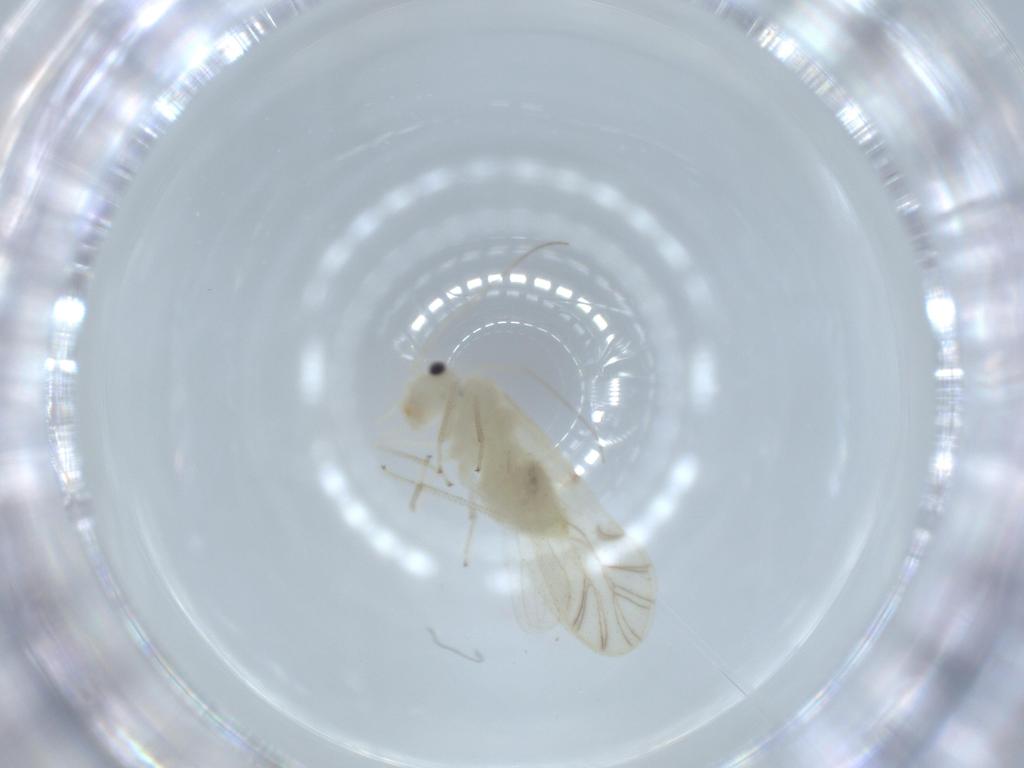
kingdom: Animalia
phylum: Arthropoda
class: Insecta
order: Psocodea
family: Caeciliusidae
